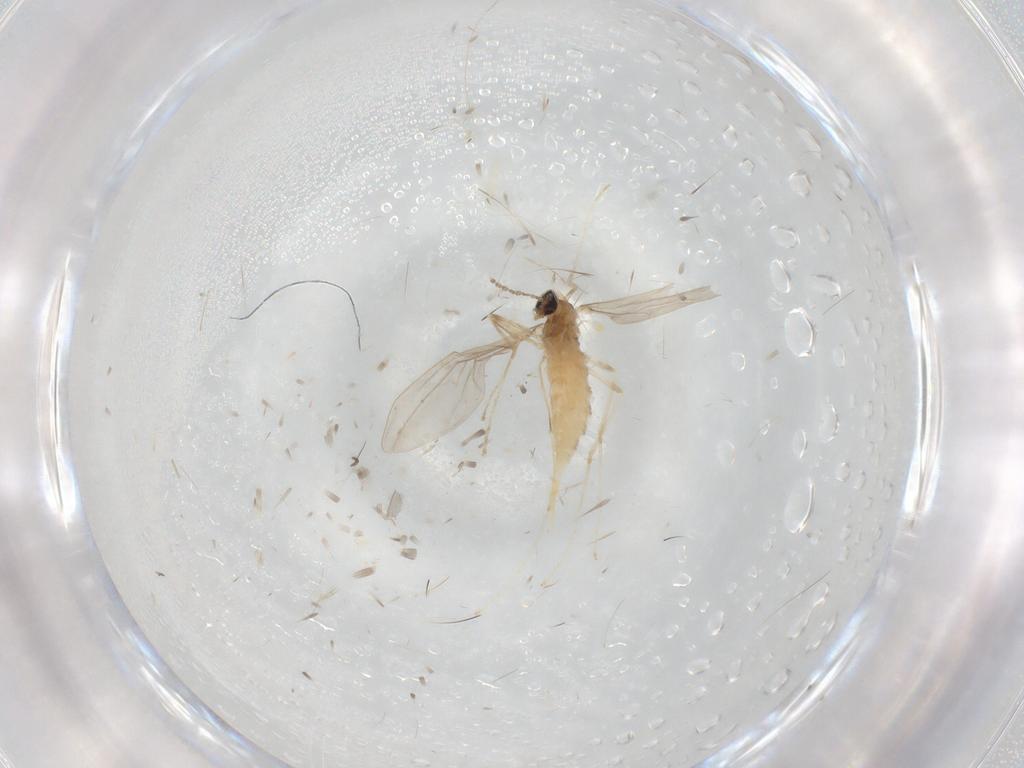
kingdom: Animalia
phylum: Arthropoda
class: Insecta
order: Diptera
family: Cecidomyiidae
